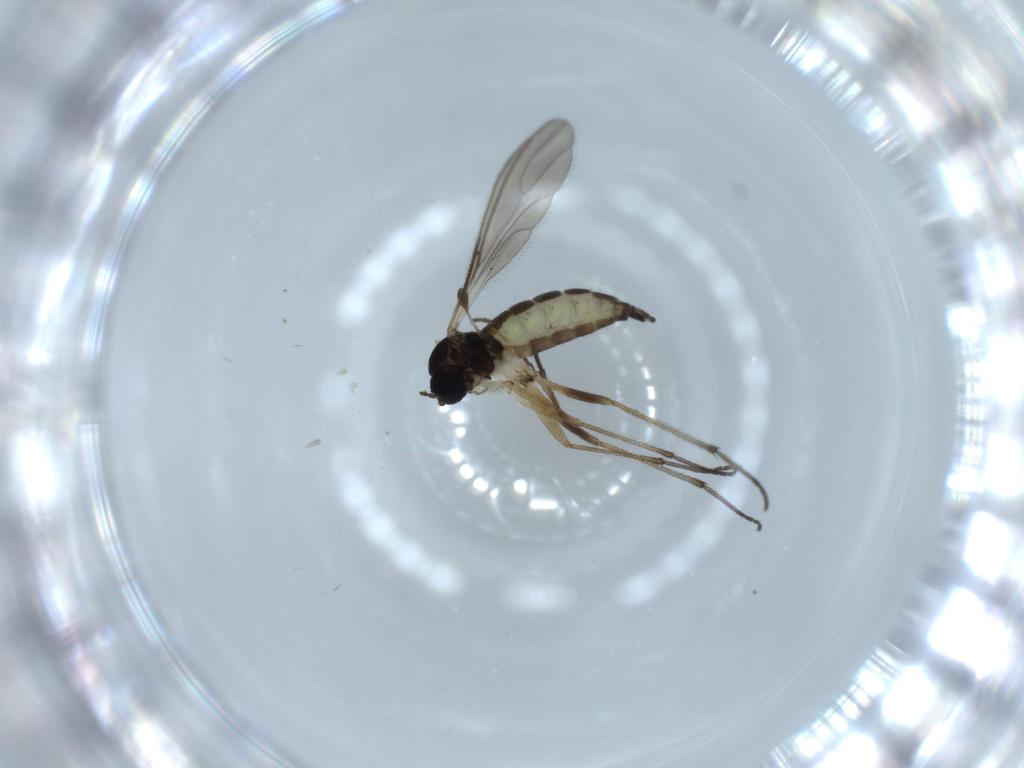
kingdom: Animalia
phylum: Arthropoda
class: Insecta
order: Diptera
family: Sciaridae
